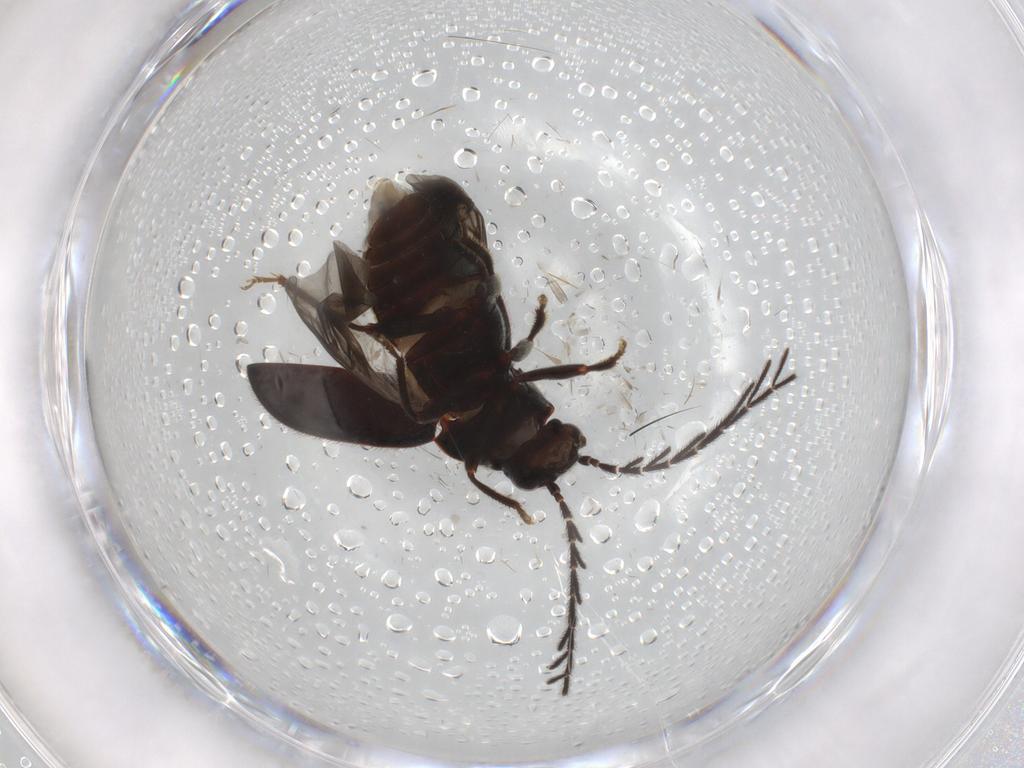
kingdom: Animalia
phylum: Arthropoda
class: Insecta
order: Coleoptera
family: Ptilodactylidae
